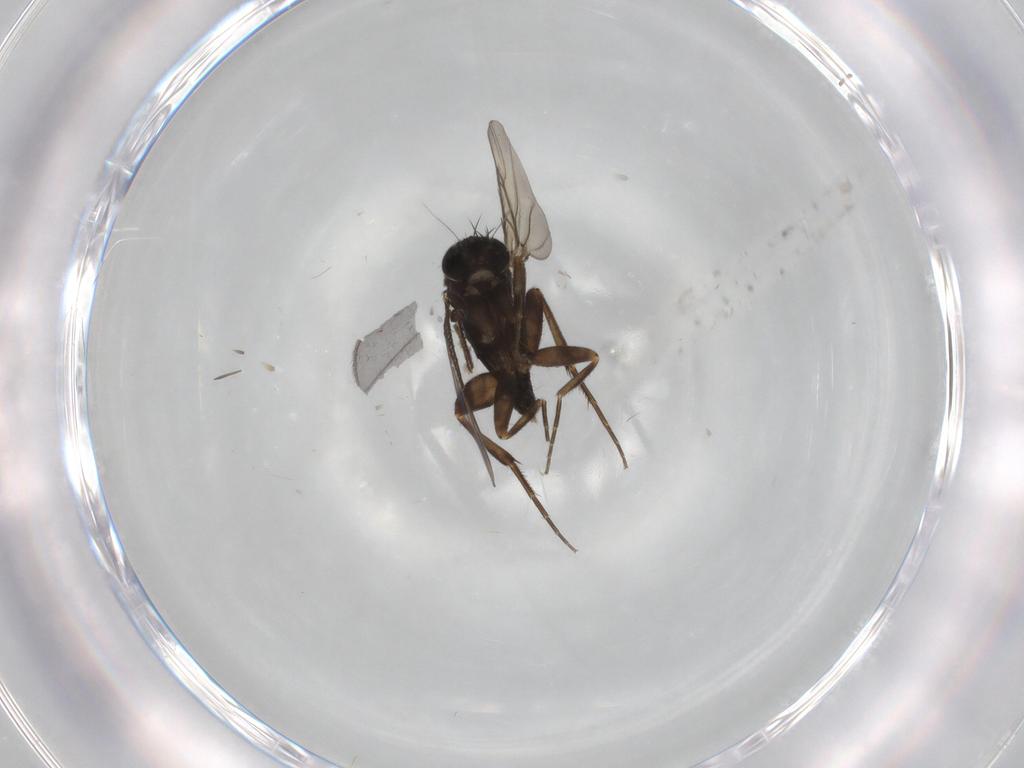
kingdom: Animalia
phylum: Arthropoda
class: Insecta
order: Diptera
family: Phoridae
